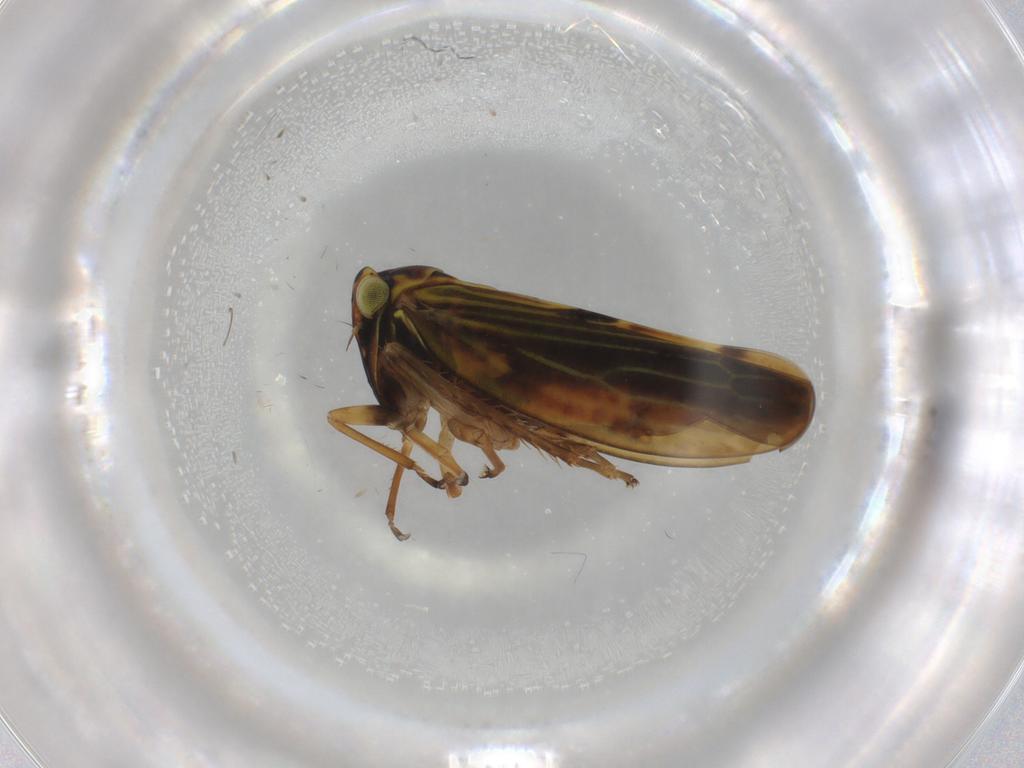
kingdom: Animalia
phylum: Arthropoda
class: Insecta
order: Hemiptera
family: Cicadellidae
